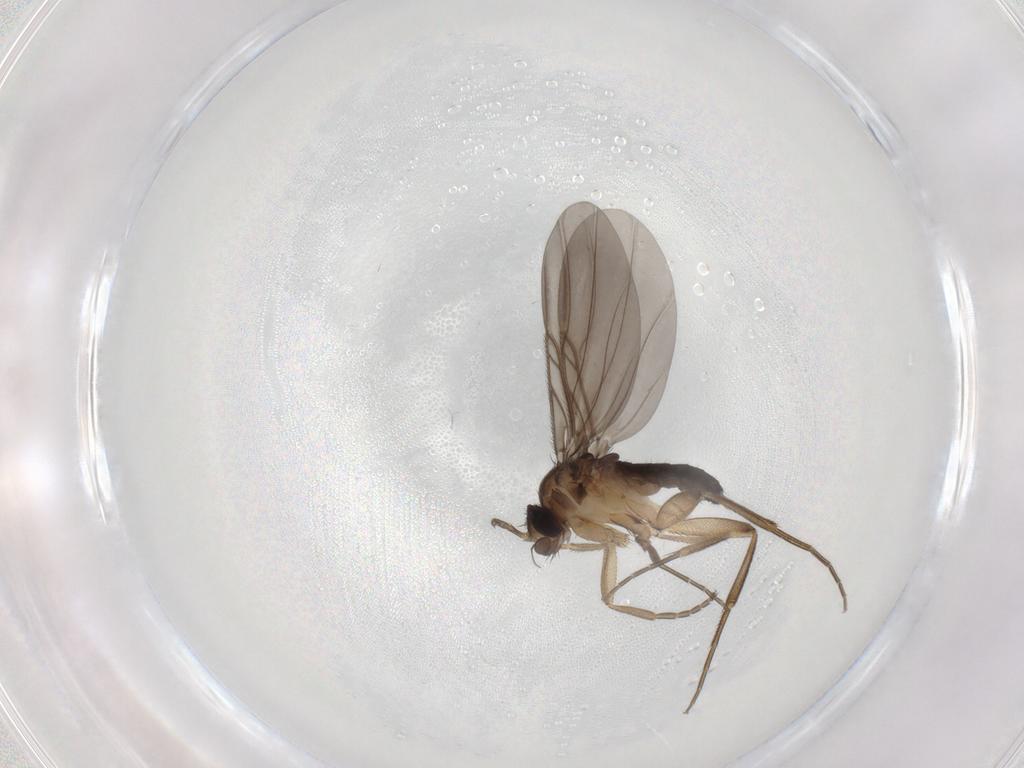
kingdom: Animalia
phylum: Arthropoda
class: Insecta
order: Diptera
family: Phoridae
